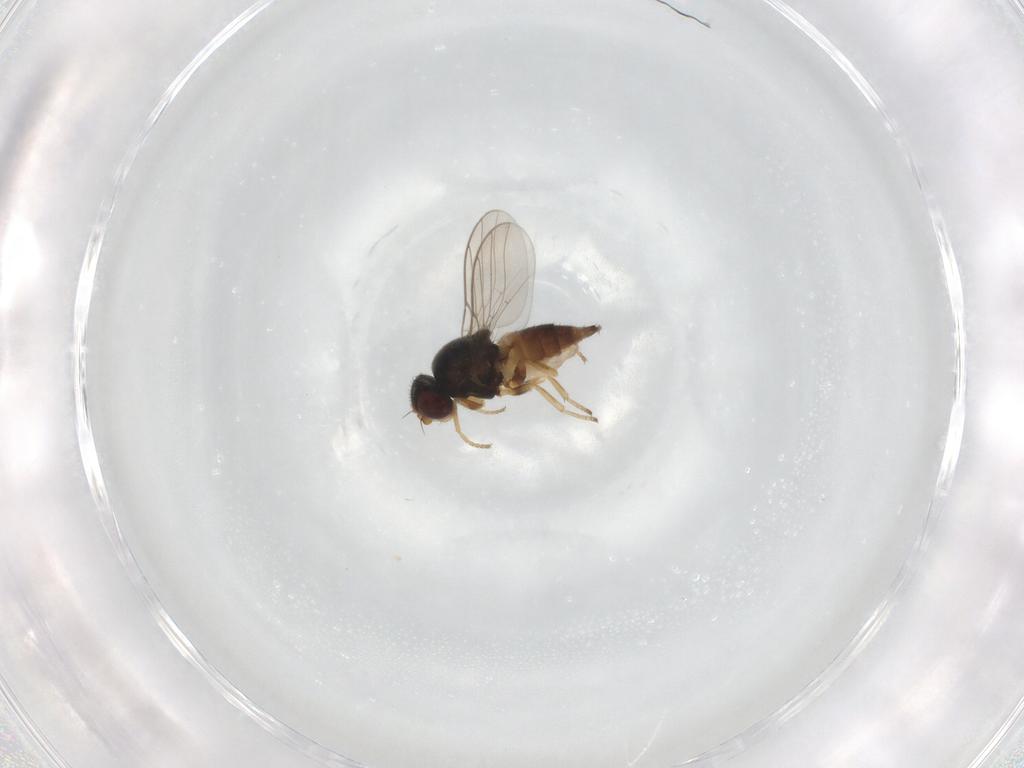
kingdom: Animalia
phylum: Arthropoda
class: Insecta
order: Diptera
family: Chloropidae
